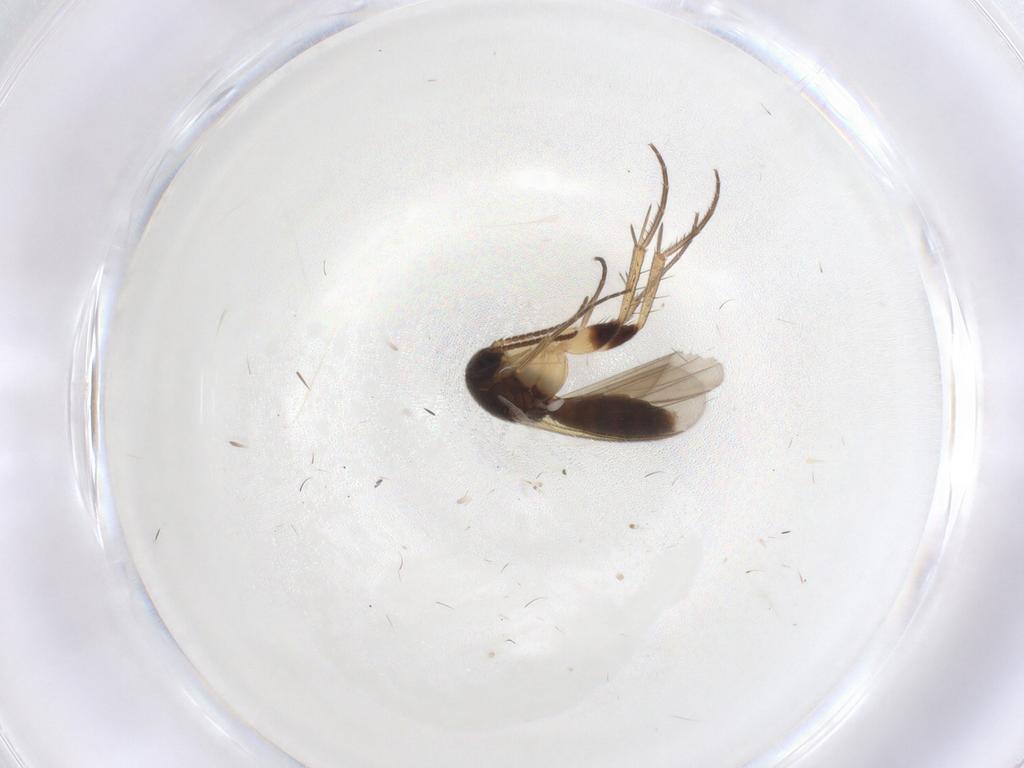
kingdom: Animalia
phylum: Arthropoda
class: Insecta
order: Diptera
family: Mycetophilidae
